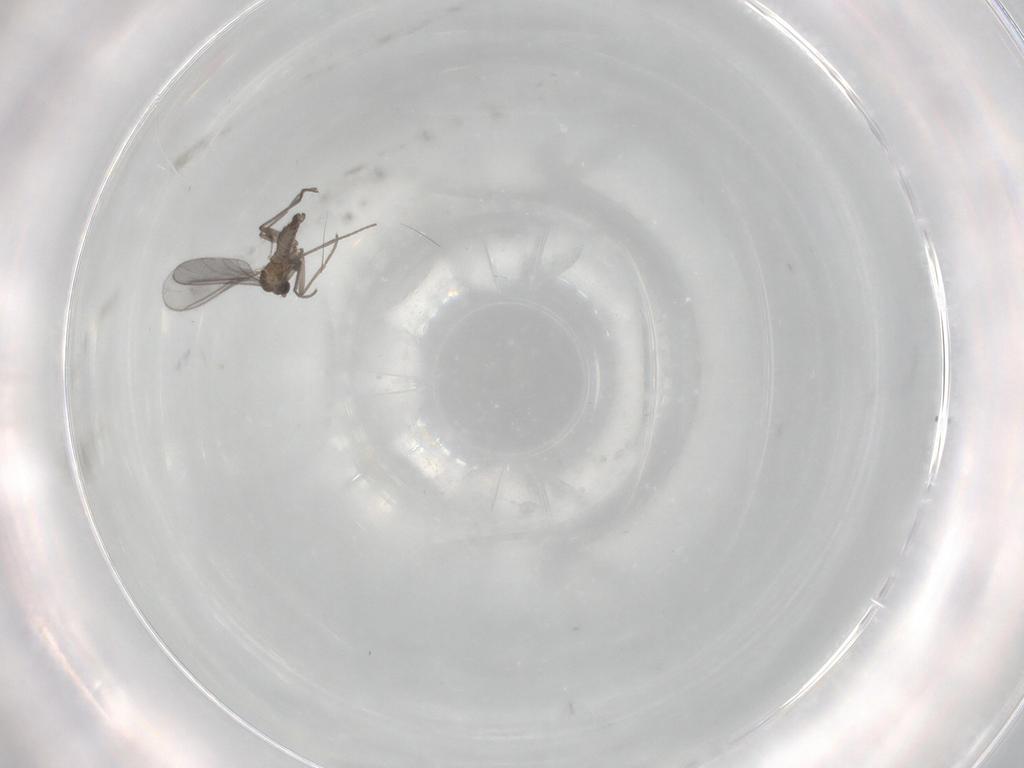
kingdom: Animalia
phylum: Arthropoda
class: Insecta
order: Diptera
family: Phoridae
